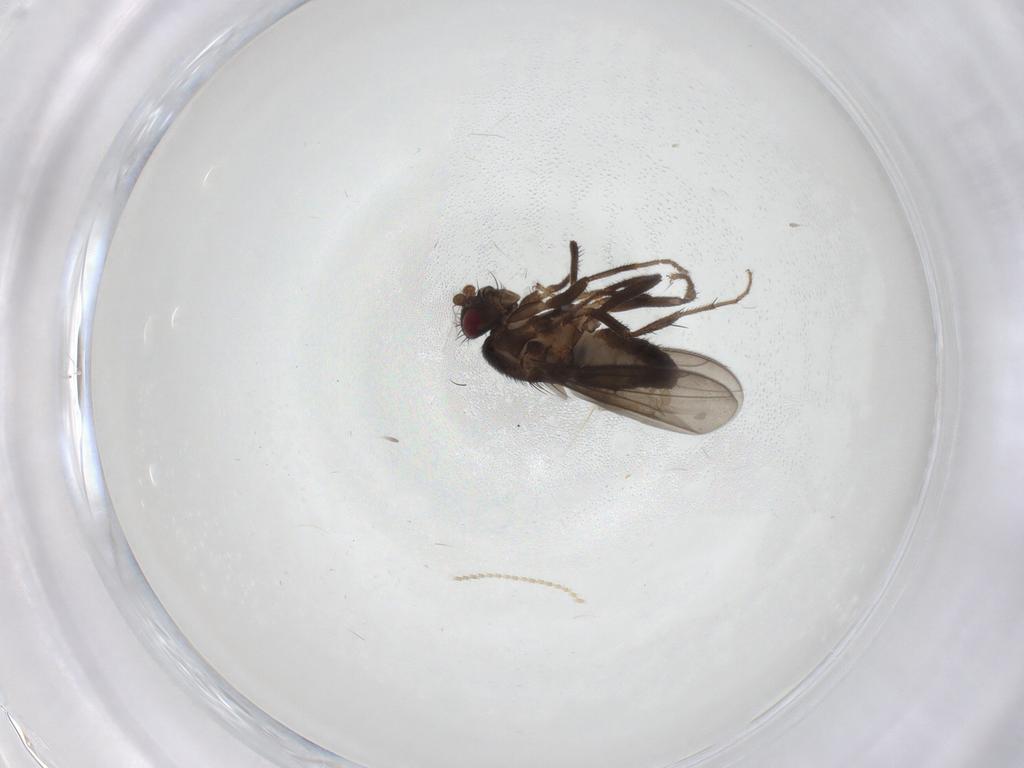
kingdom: Animalia
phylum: Arthropoda
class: Insecta
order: Diptera
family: Sphaeroceridae
